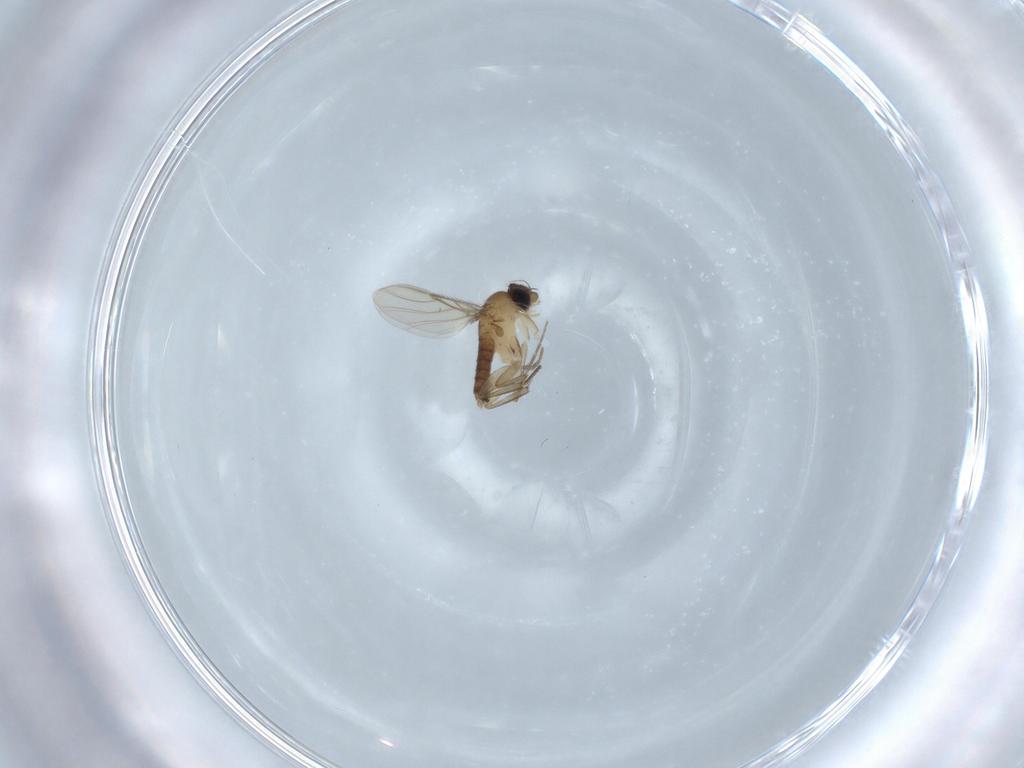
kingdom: Animalia
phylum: Arthropoda
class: Insecta
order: Diptera
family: Phoridae
